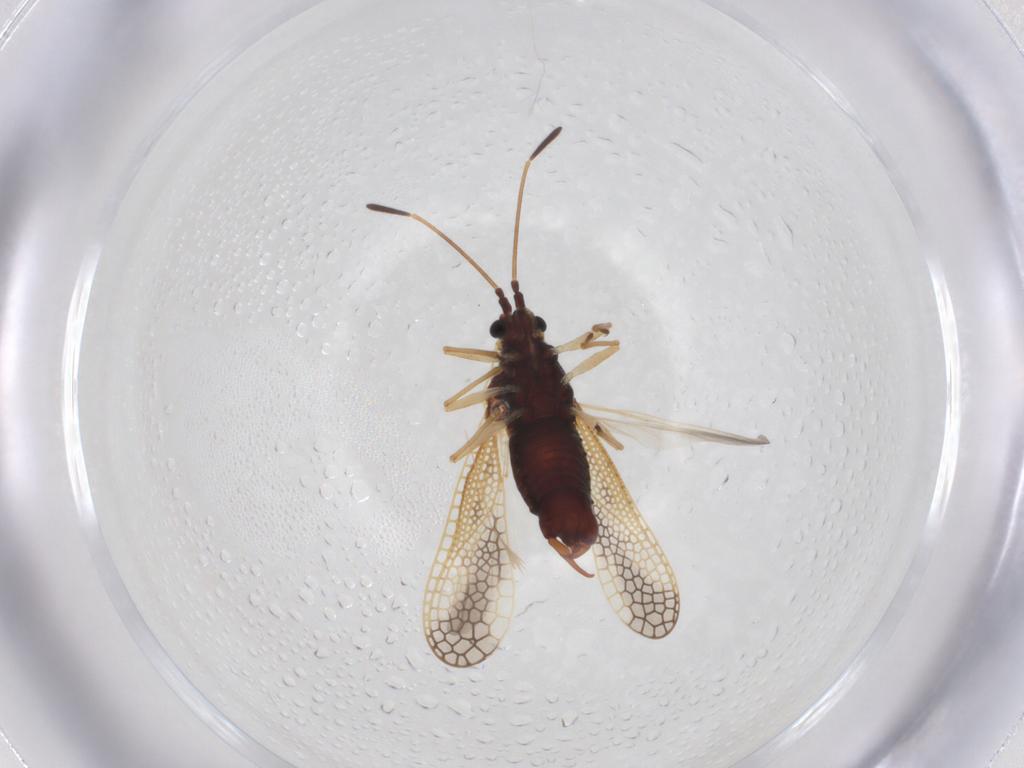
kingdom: Animalia
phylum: Arthropoda
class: Insecta
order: Hemiptera
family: Tingidae
